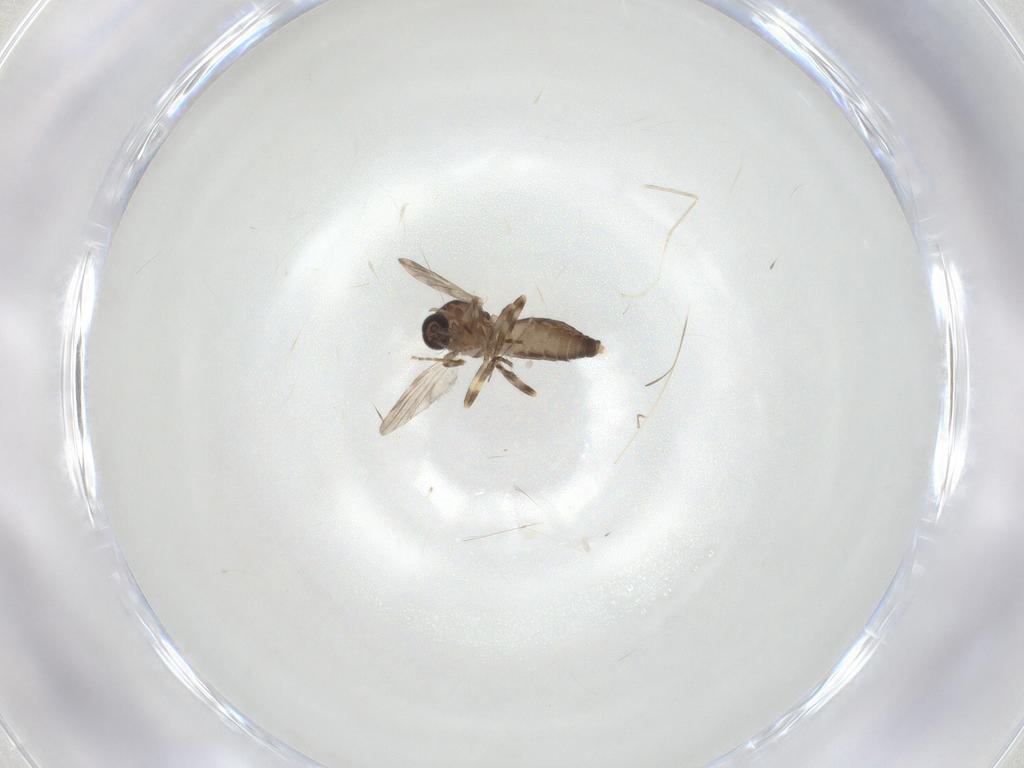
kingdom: Animalia
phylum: Arthropoda
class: Insecta
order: Diptera
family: Ceratopogonidae
